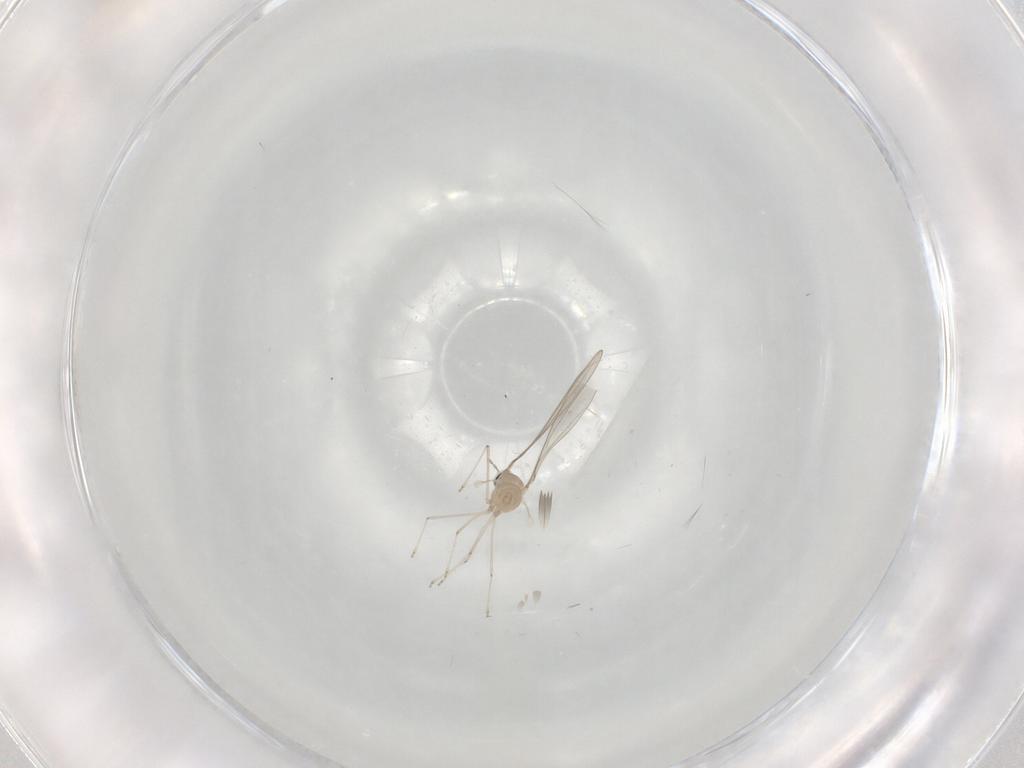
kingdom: Animalia
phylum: Arthropoda
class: Insecta
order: Diptera
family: Cecidomyiidae
